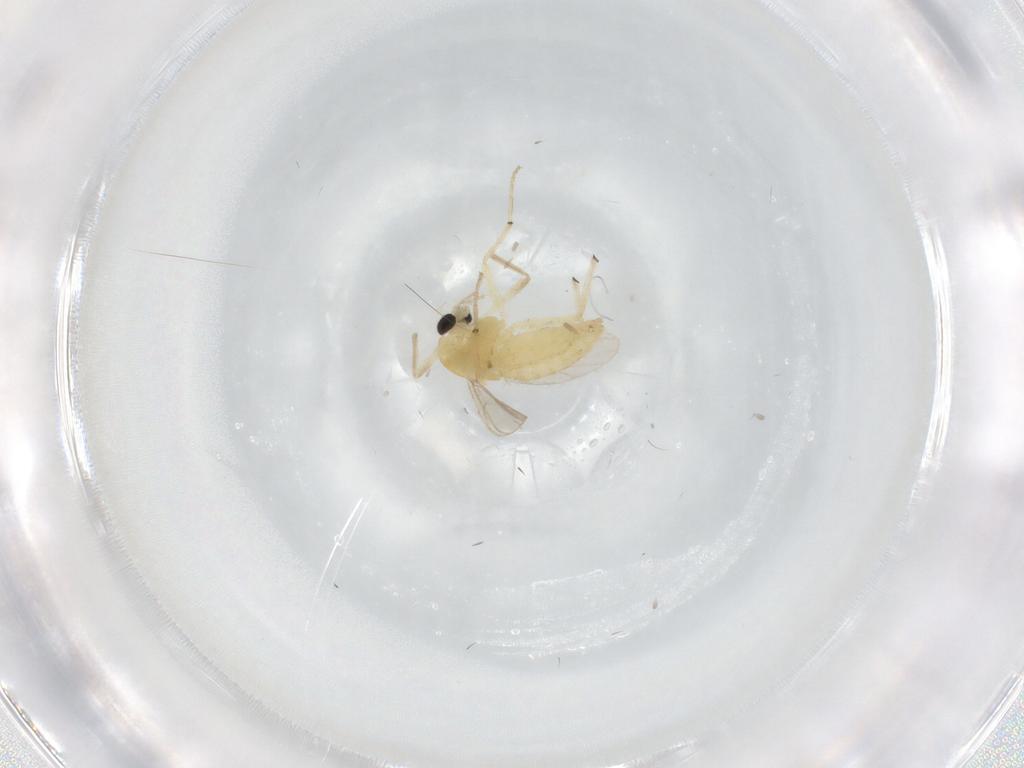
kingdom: Animalia
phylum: Arthropoda
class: Insecta
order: Diptera
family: Chironomidae
